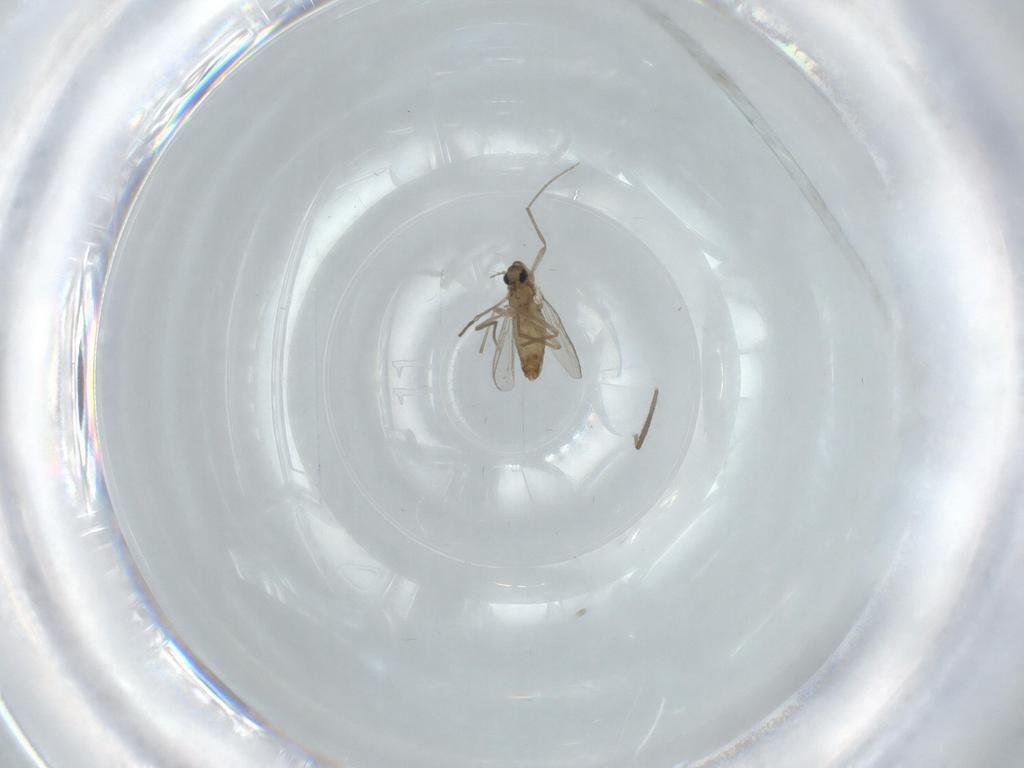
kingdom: Animalia
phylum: Arthropoda
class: Insecta
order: Diptera
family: Chironomidae
